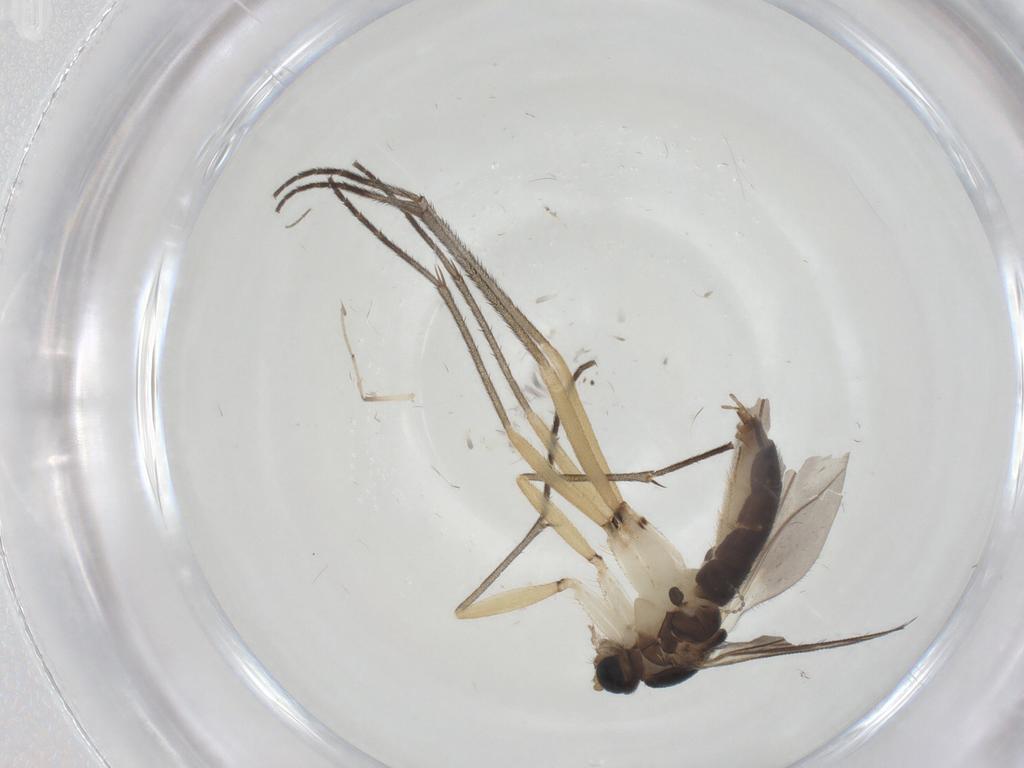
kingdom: Animalia
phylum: Arthropoda
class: Insecta
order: Diptera
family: Sciaridae
